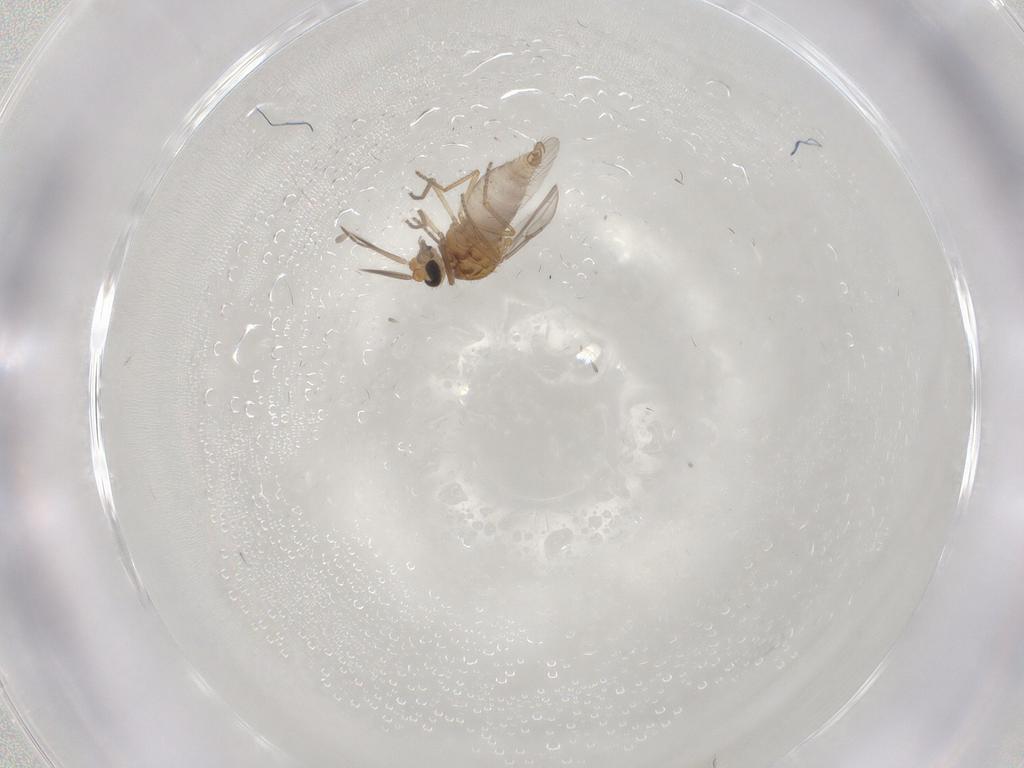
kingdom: Animalia
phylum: Arthropoda
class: Insecta
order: Diptera
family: Ceratopogonidae
